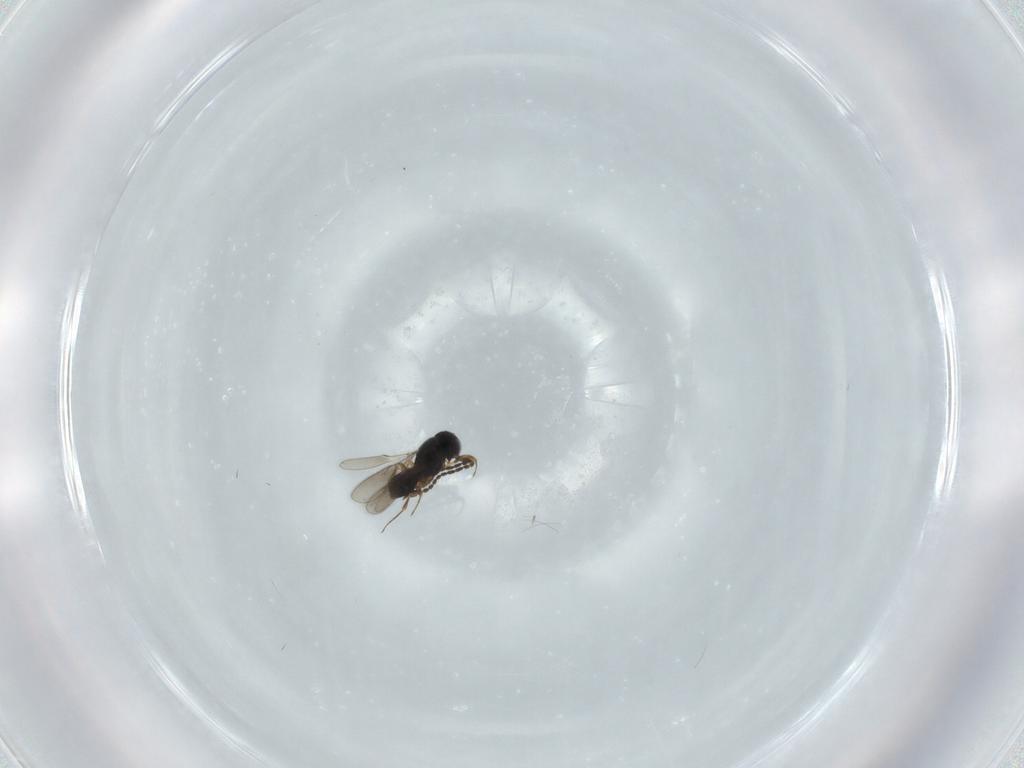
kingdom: Animalia
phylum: Arthropoda
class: Insecta
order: Hymenoptera
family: Scelionidae
